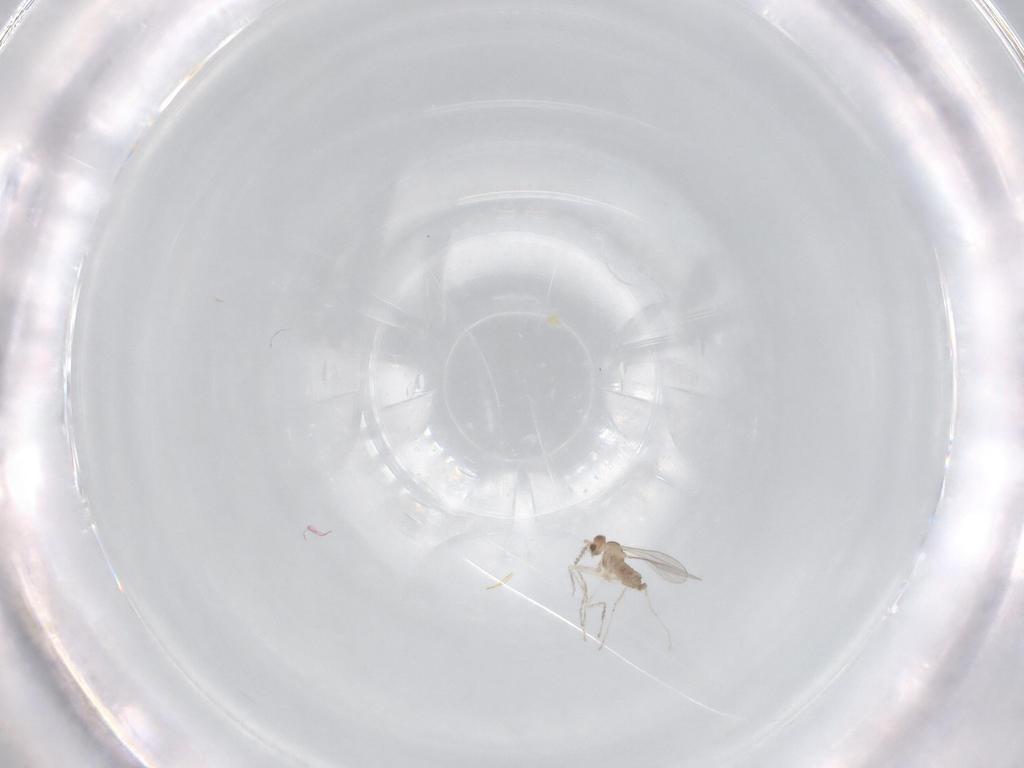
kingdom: Animalia
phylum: Arthropoda
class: Insecta
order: Diptera
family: Cecidomyiidae
